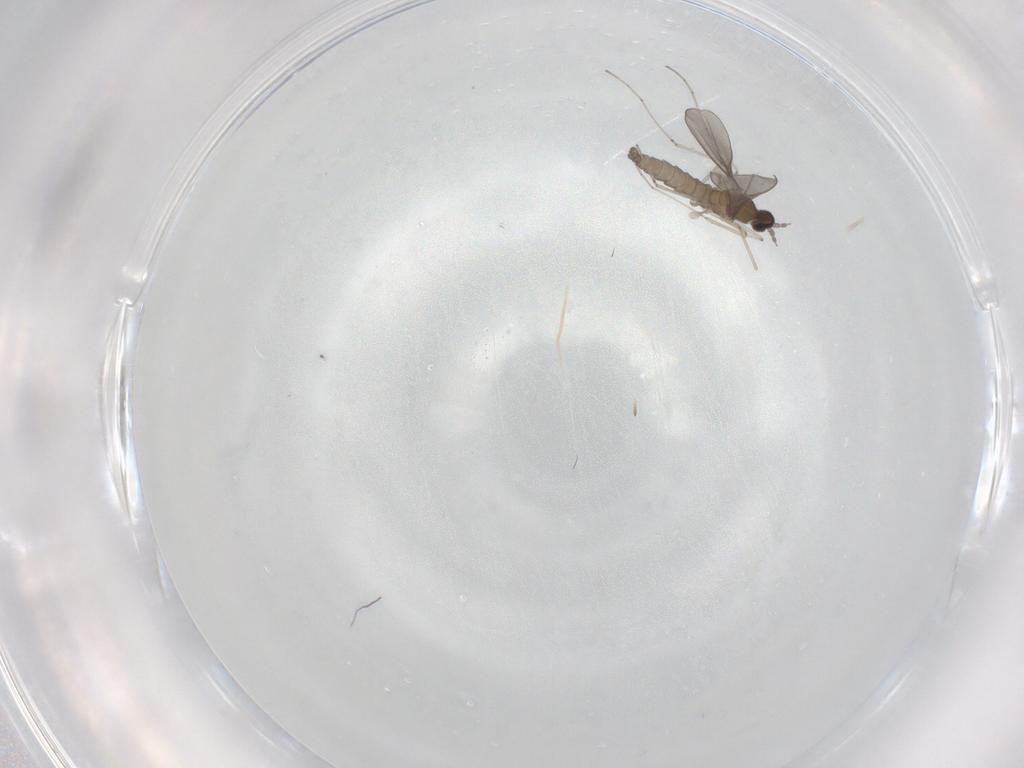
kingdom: Animalia
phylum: Arthropoda
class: Insecta
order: Diptera
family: Cecidomyiidae
